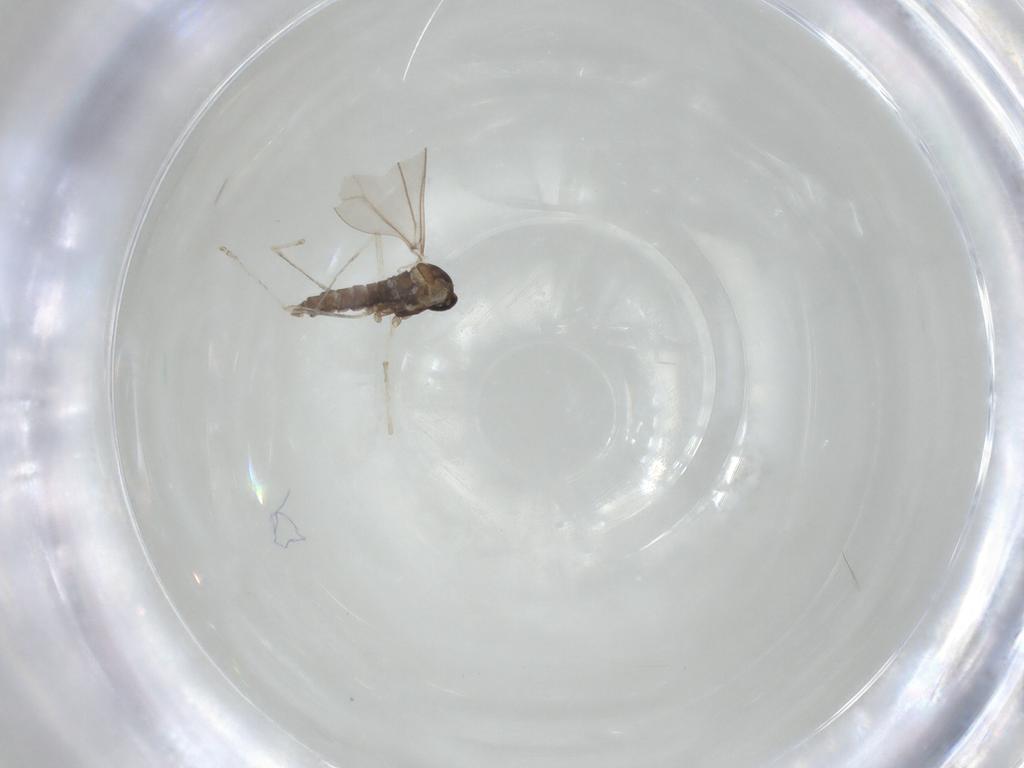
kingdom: Animalia
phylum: Arthropoda
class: Insecta
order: Diptera
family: Cecidomyiidae
